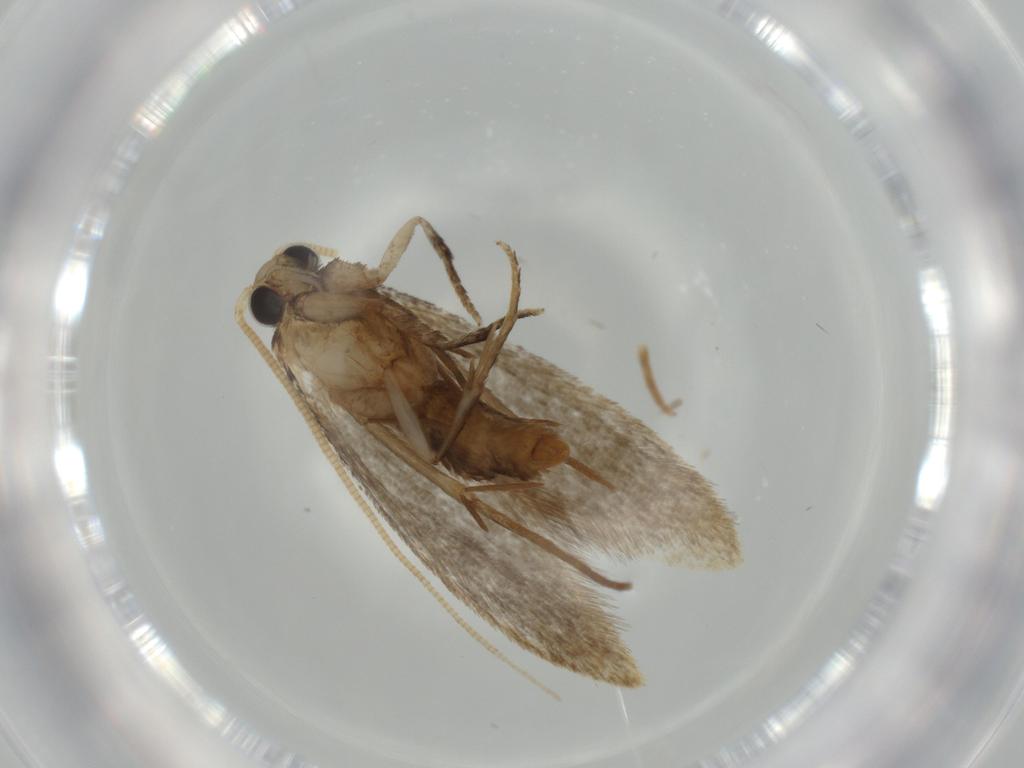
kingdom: Animalia
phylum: Arthropoda
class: Insecta
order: Lepidoptera
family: Tineidae
